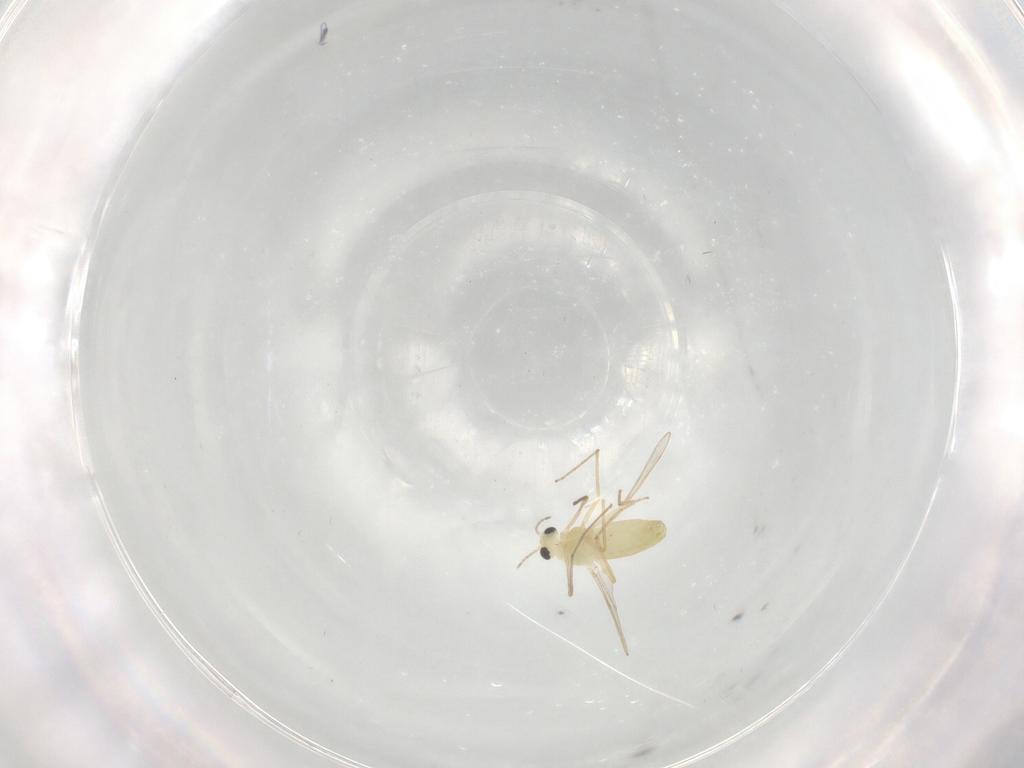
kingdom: Animalia
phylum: Arthropoda
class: Insecta
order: Diptera
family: Chironomidae
